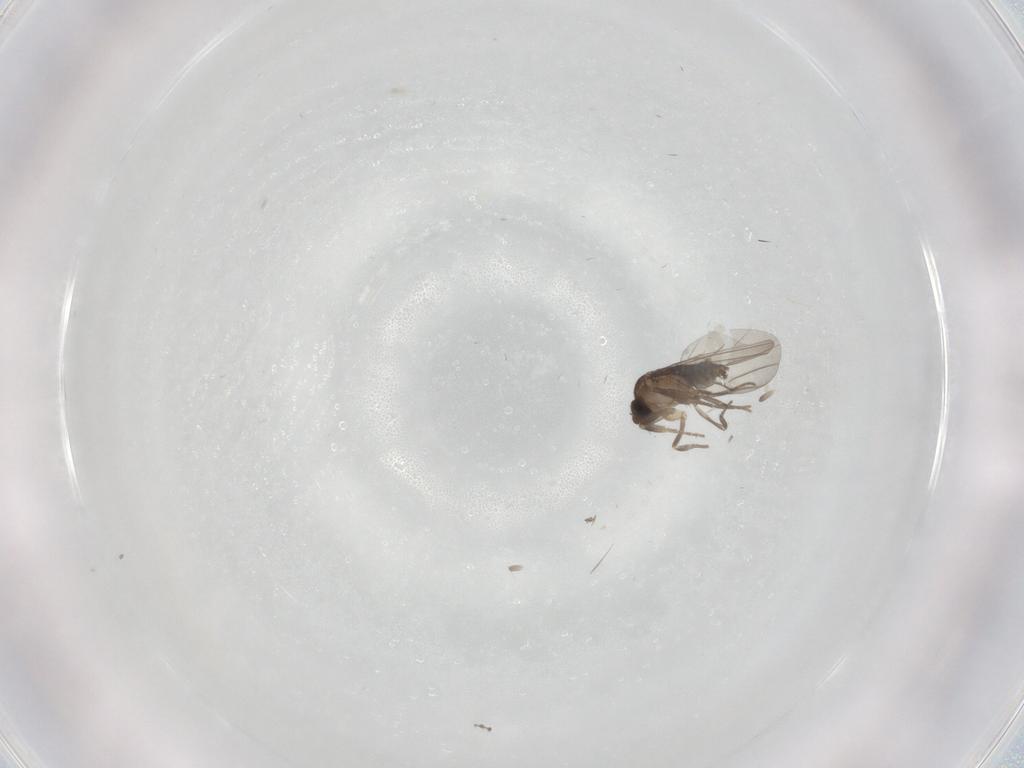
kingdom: Animalia
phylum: Arthropoda
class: Insecta
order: Diptera
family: Phoridae
